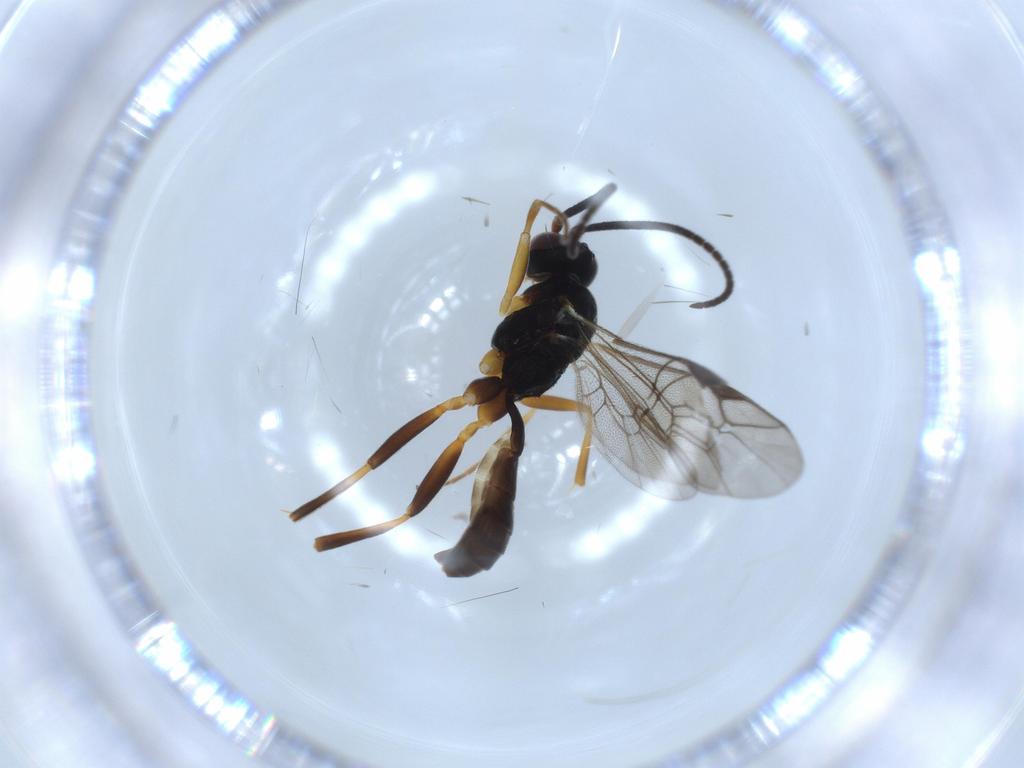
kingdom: Animalia
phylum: Arthropoda
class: Insecta
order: Hymenoptera
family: Ichneumonidae
